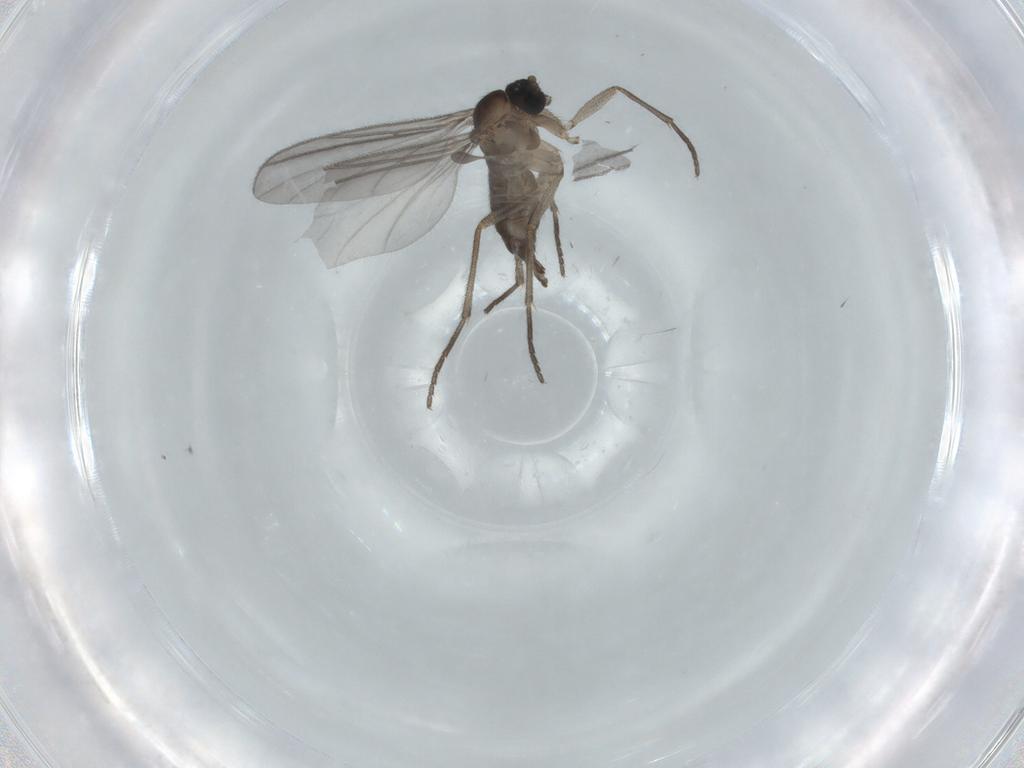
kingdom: Animalia
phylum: Arthropoda
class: Insecta
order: Diptera
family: Sciaridae
